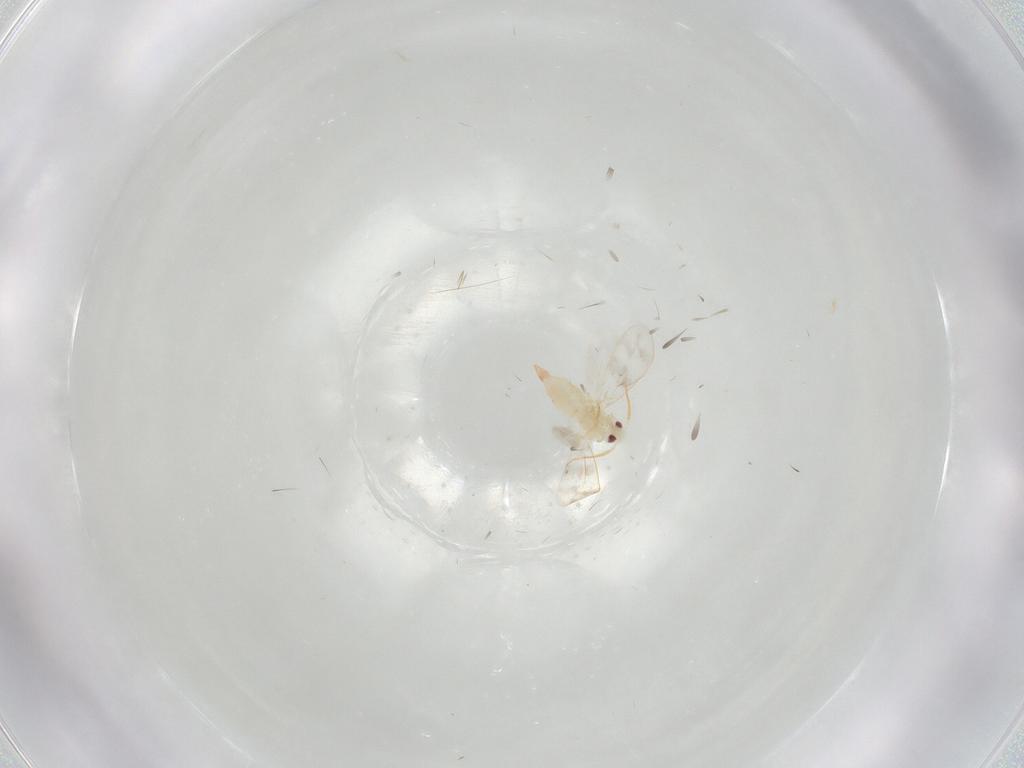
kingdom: Animalia
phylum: Arthropoda
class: Insecta
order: Hemiptera
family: Aleyrodidae
